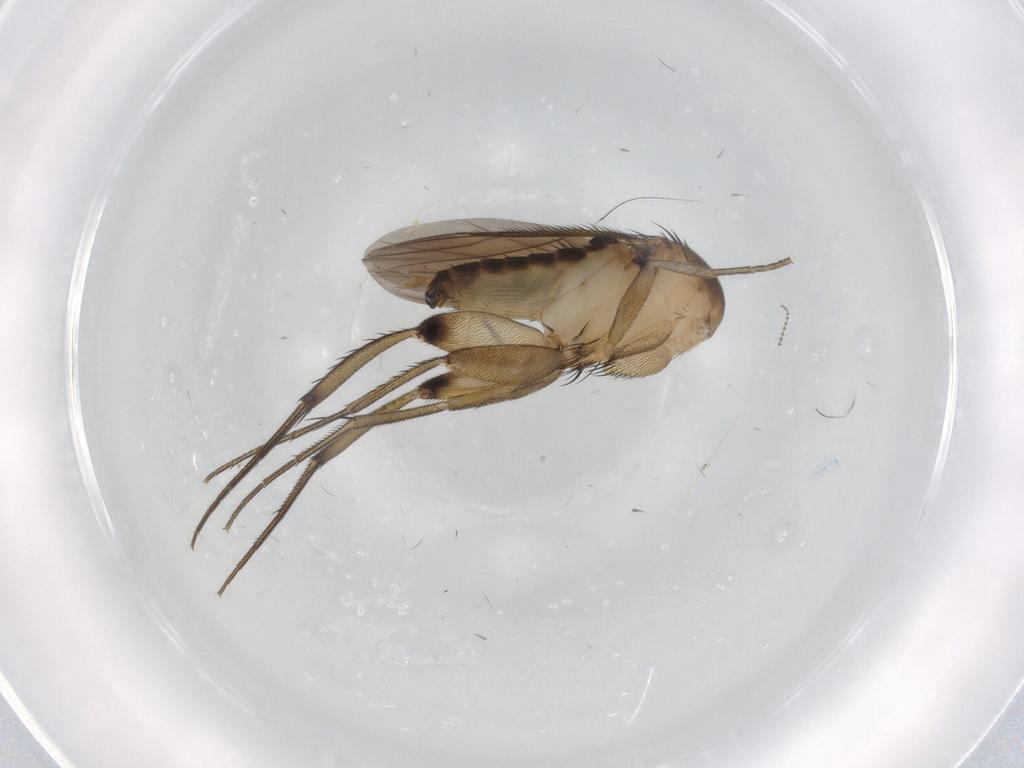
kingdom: Animalia
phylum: Arthropoda
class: Insecta
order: Diptera
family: Phoridae
